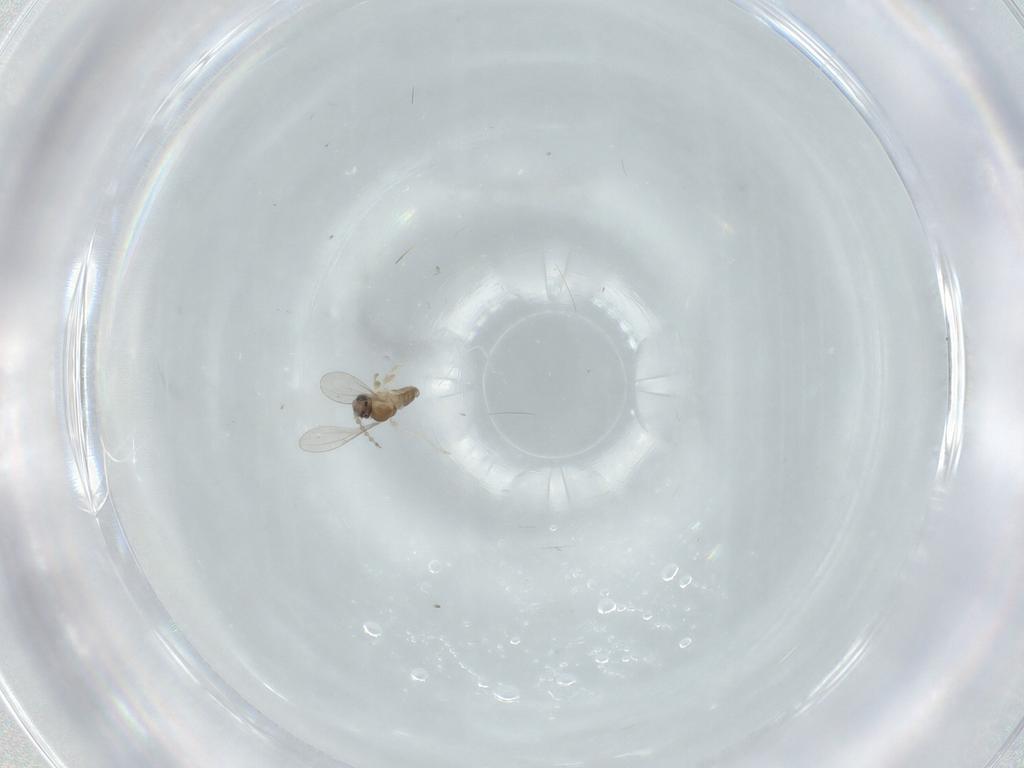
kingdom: Animalia
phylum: Arthropoda
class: Insecta
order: Diptera
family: Cecidomyiidae
